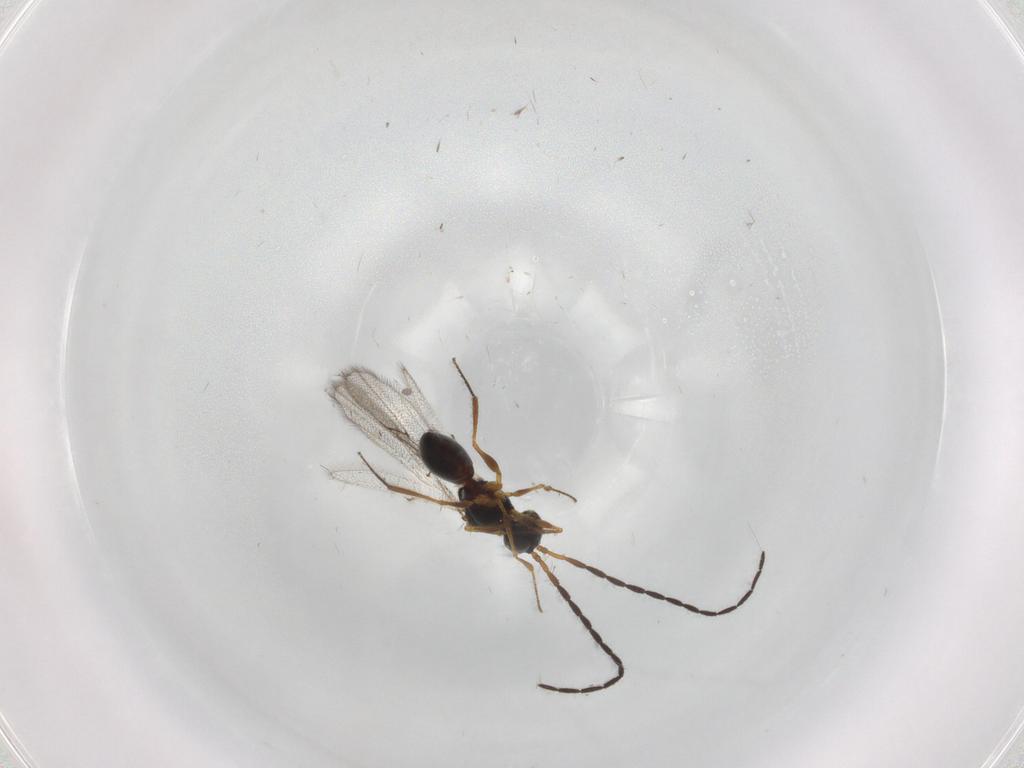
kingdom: Animalia
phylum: Arthropoda
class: Insecta
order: Hymenoptera
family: Figitidae
